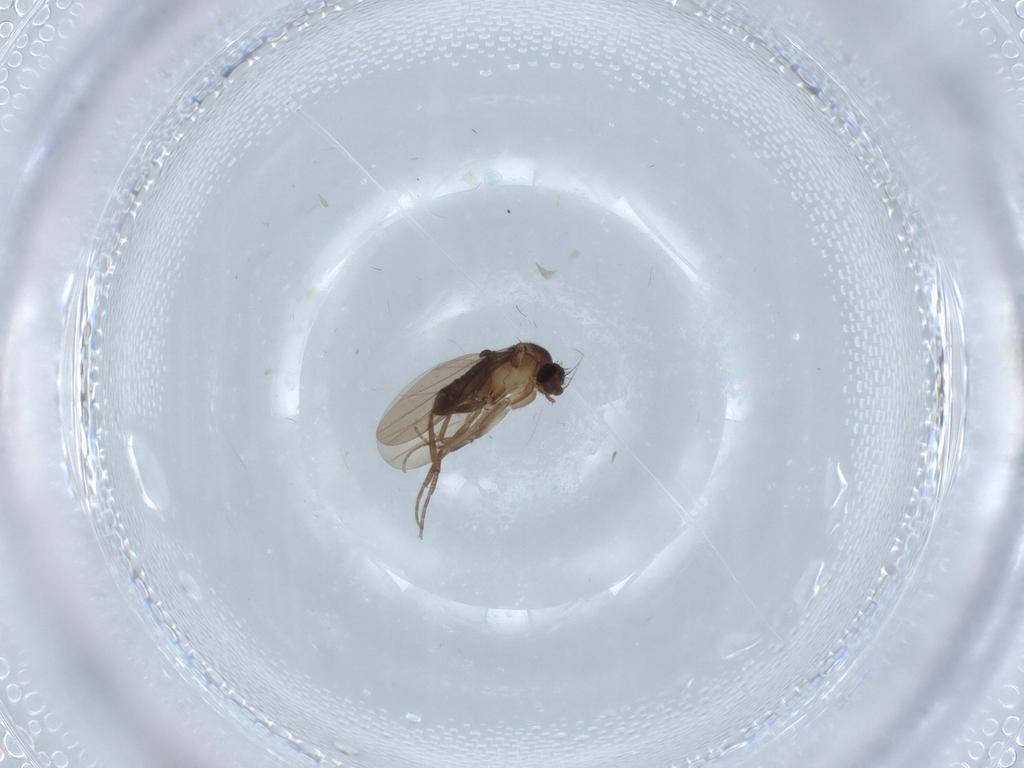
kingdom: Animalia
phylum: Arthropoda
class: Insecta
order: Diptera
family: Phoridae
